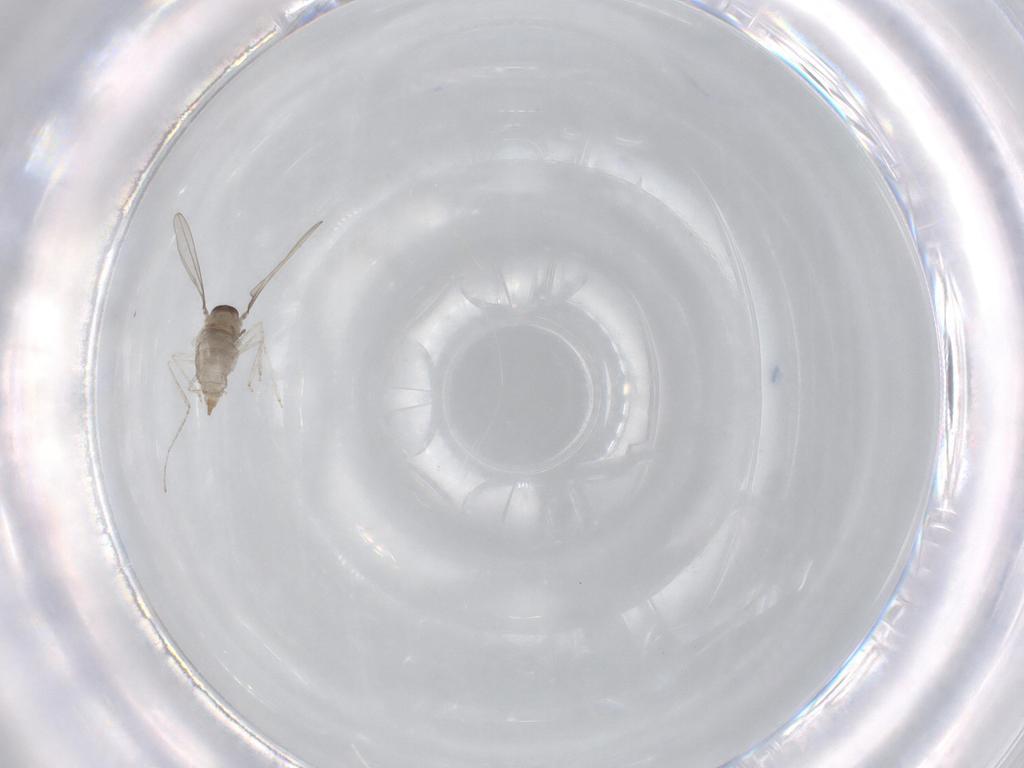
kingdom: Animalia
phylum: Arthropoda
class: Insecta
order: Diptera
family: Cecidomyiidae
